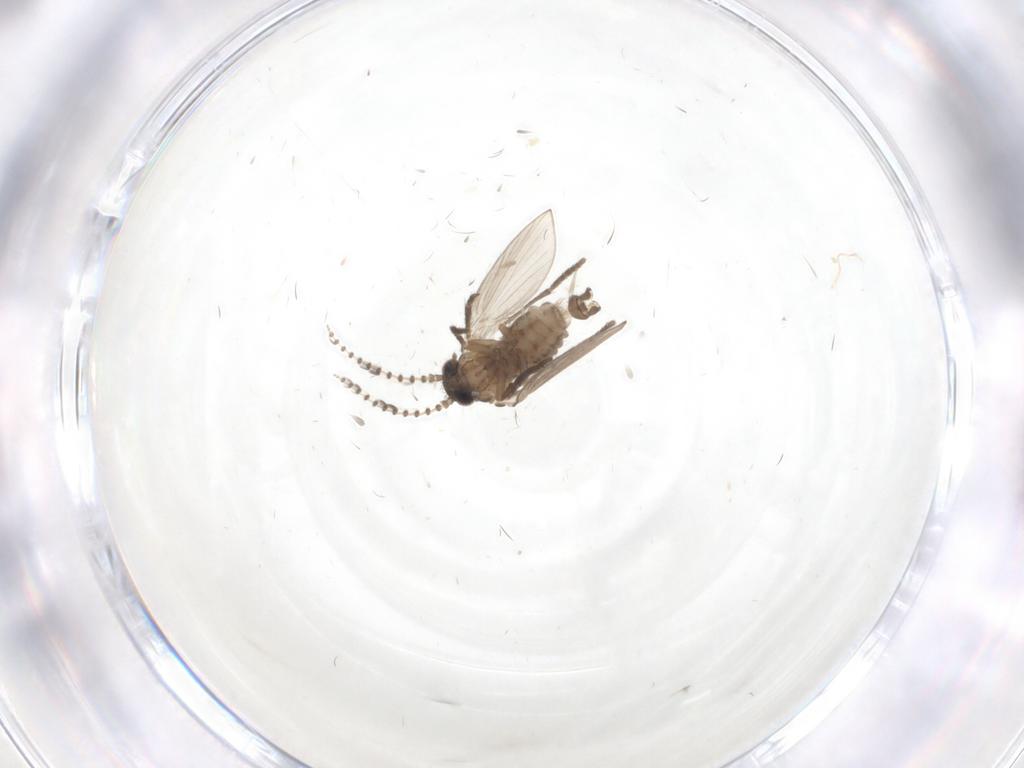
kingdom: Animalia
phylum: Arthropoda
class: Insecta
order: Diptera
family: Psychodidae
